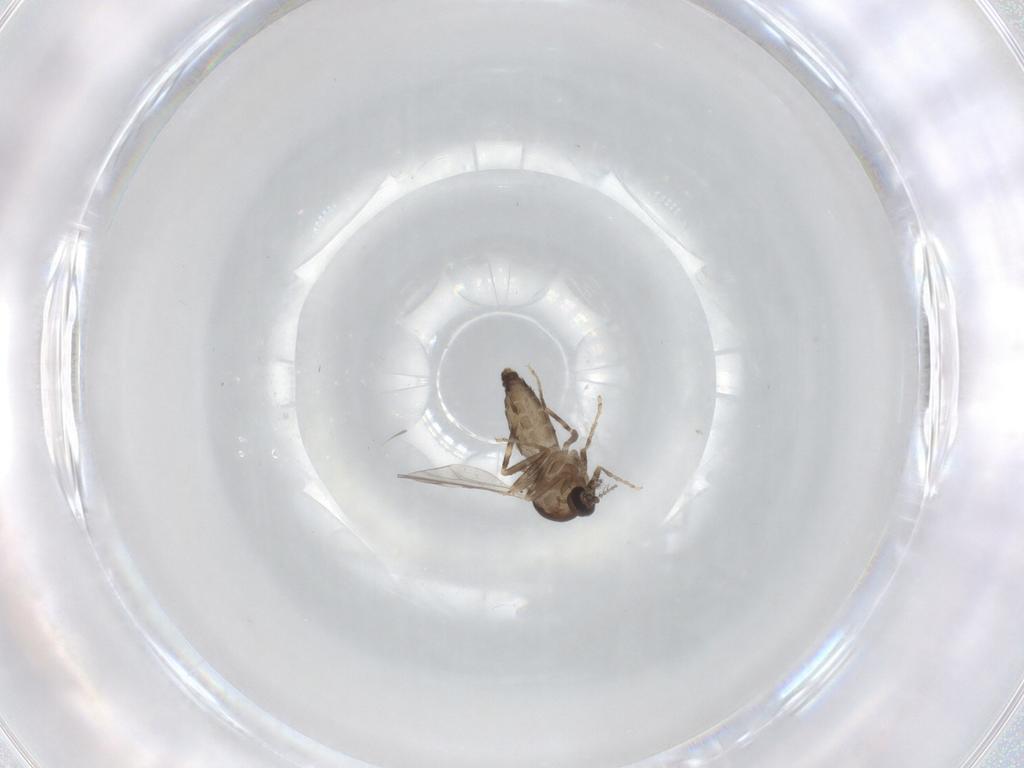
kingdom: Animalia
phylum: Arthropoda
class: Insecta
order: Diptera
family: Ceratopogonidae
